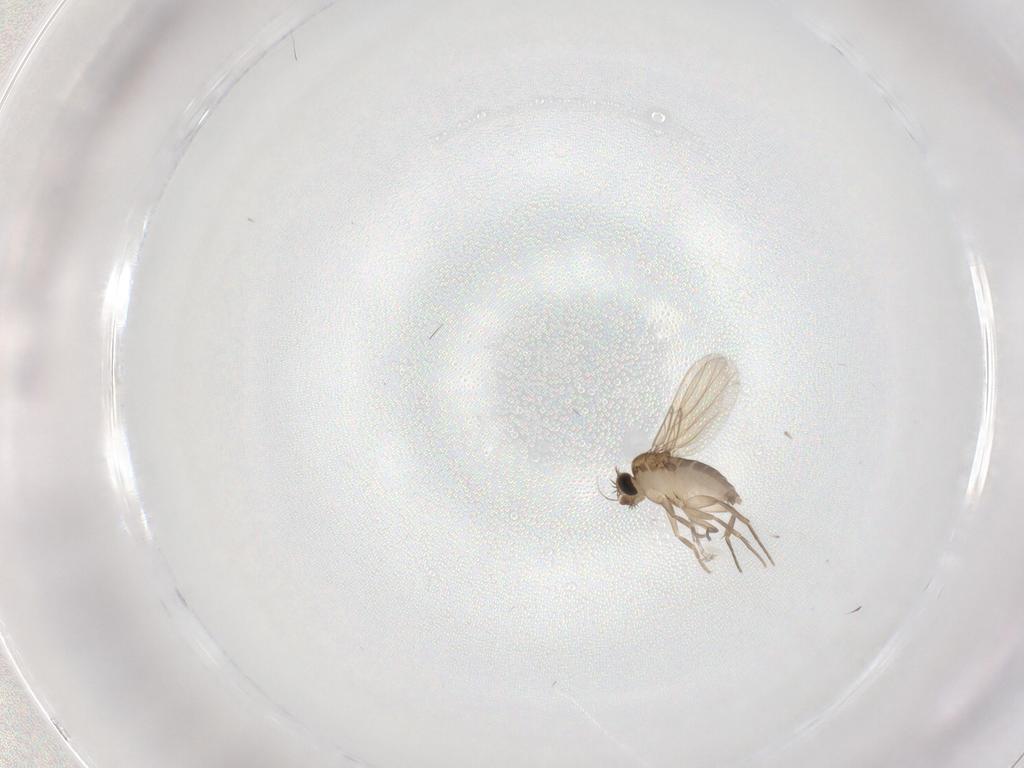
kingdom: Animalia
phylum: Arthropoda
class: Insecta
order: Diptera
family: Sciaridae
